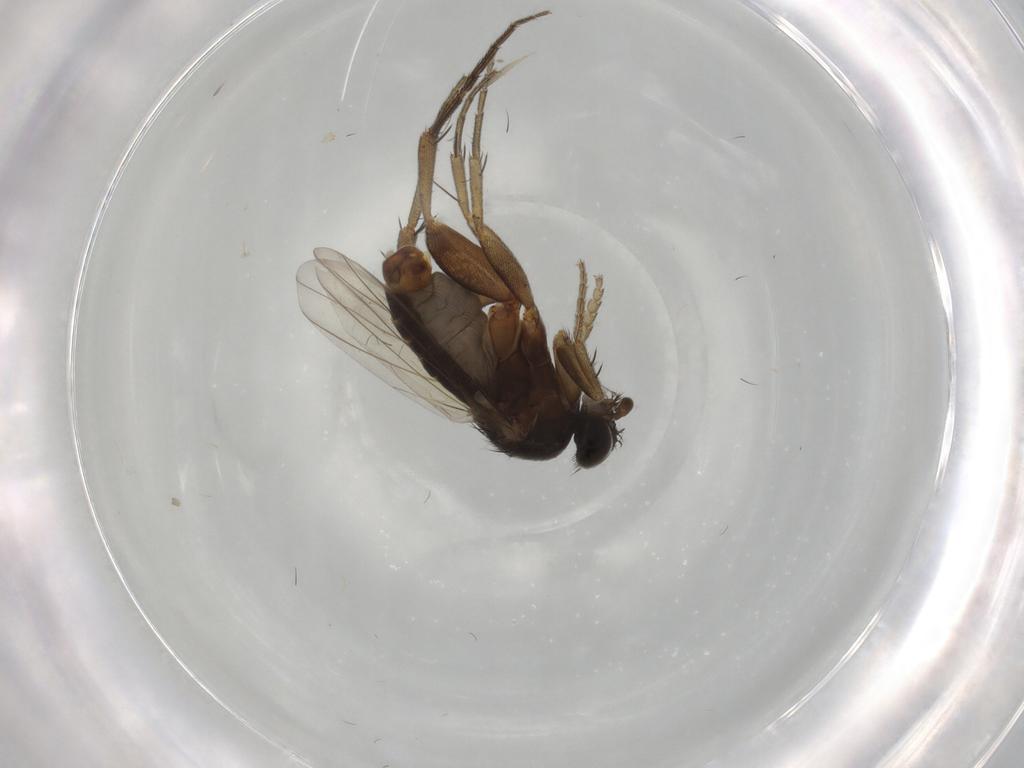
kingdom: Animalia
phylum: Arthropoda
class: Insecta
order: Diptera
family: Phoridae
